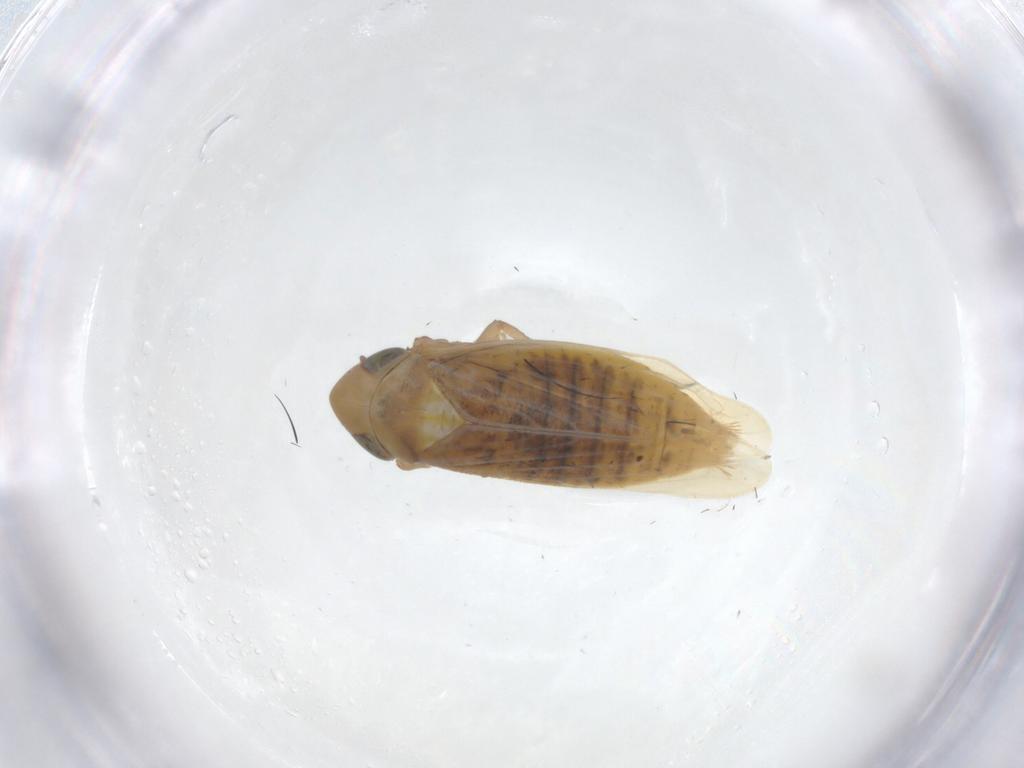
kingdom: Animalia
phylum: Arthropoda
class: Insecta
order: Hemiptera
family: Cicadellidae
